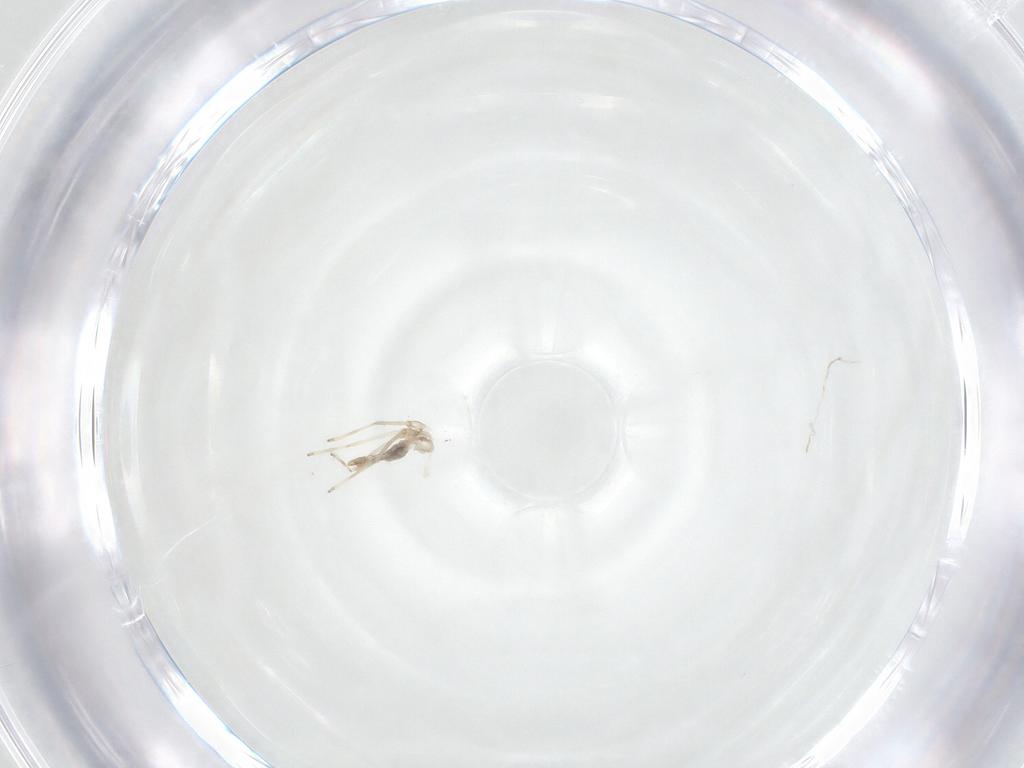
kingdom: Animalia
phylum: Arthropoda
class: Insecta
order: Diptera
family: Cecidomyiidae
